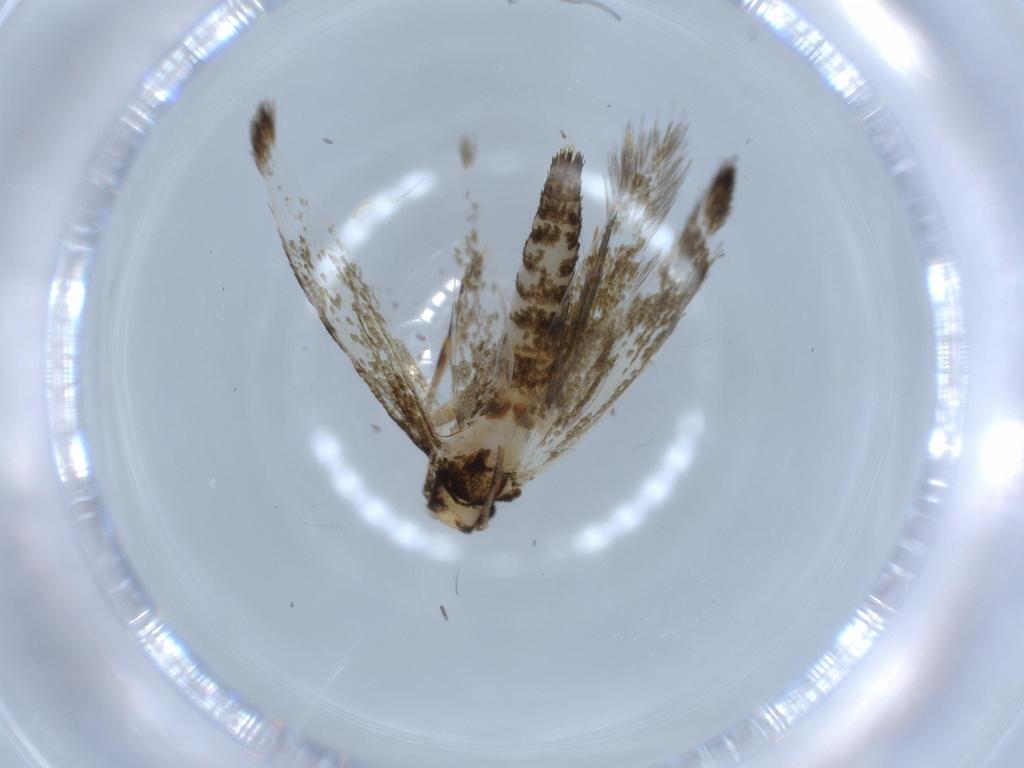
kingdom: Animalia
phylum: Arthropoda
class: Insecta
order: Lepidoptera
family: Tineidae
